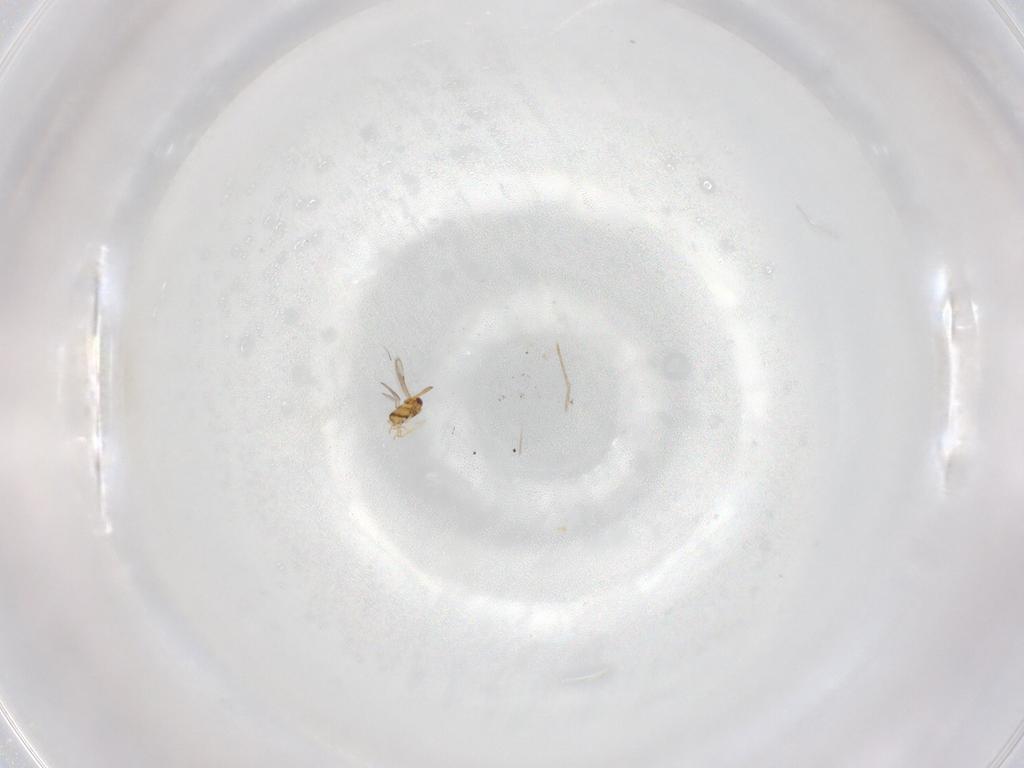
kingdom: Animalia
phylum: Arthropoda
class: Insecta
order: Hymenoptera
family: Aphelinidae
